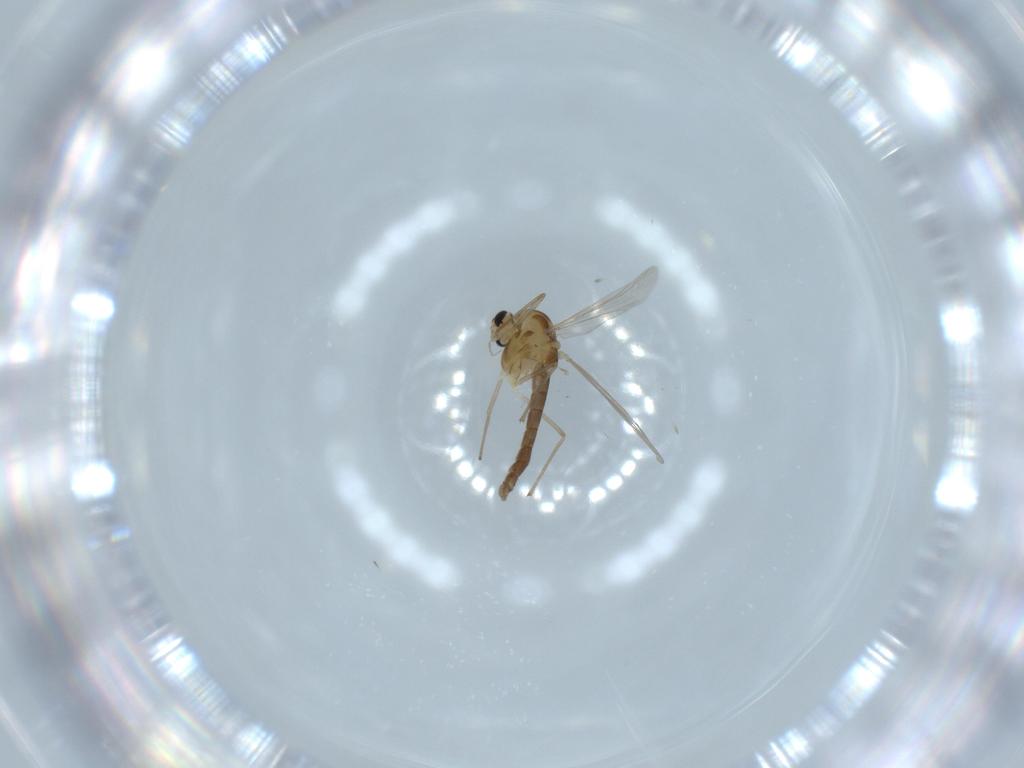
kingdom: Animalia
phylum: Arthropoda
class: Insecta
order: Diptera
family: Chironomidae
